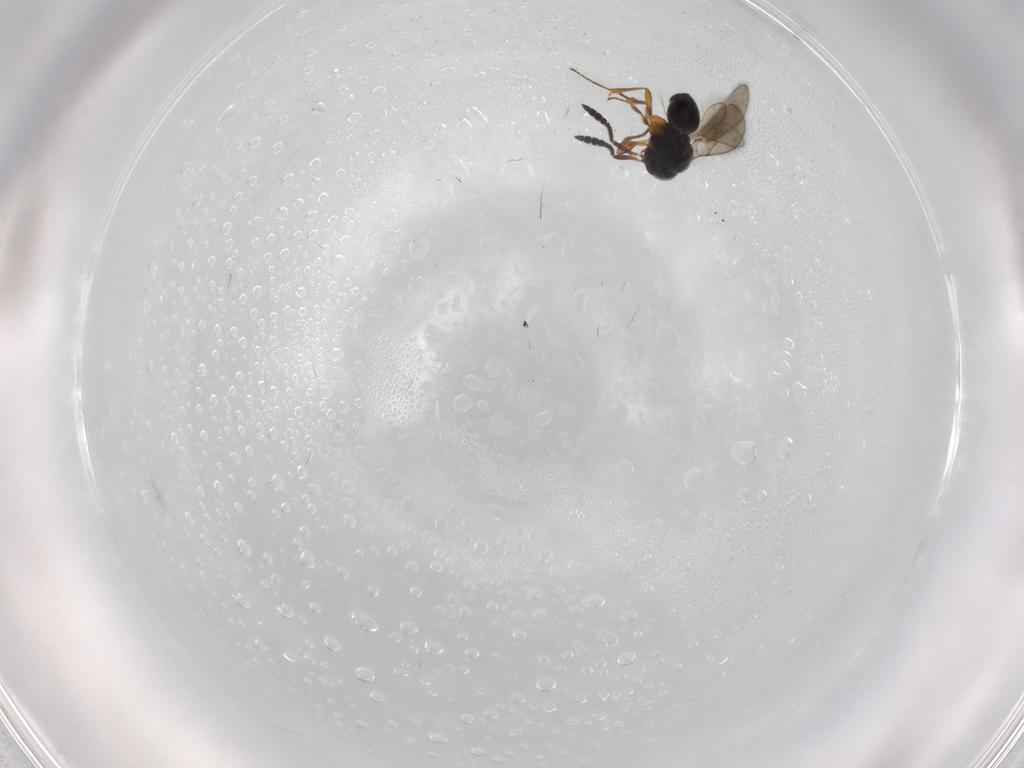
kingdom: Animalia
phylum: Arthropoda
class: Insecta
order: Hymenoptera
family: Scelionidae
